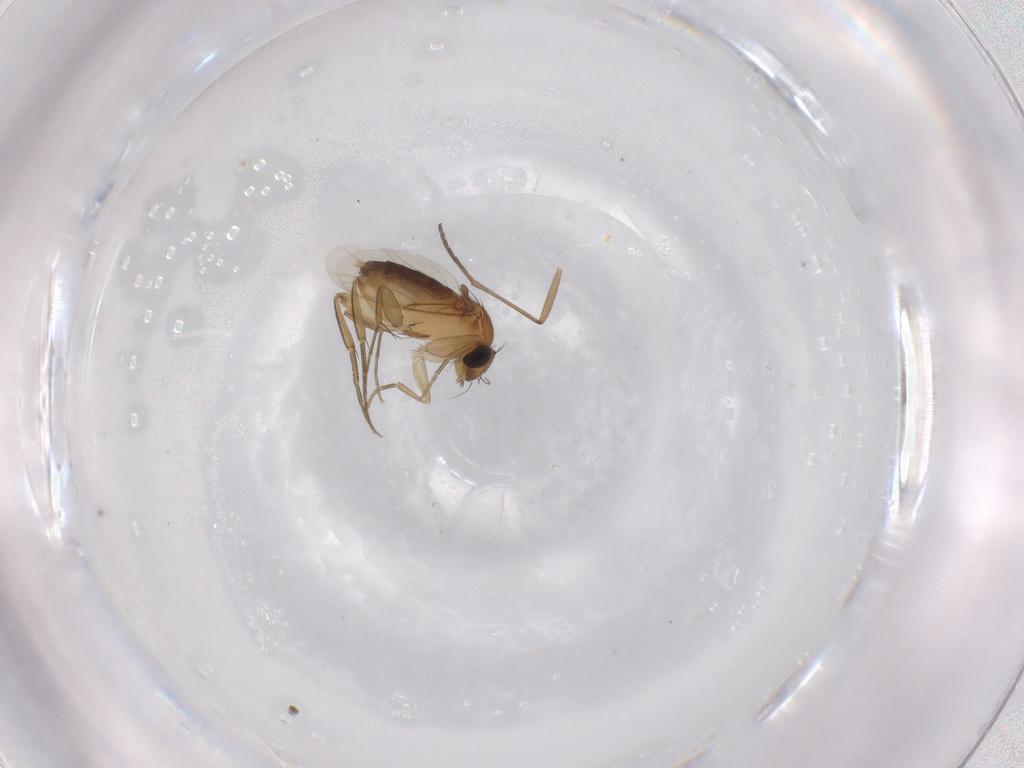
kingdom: Animalia
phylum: Arthropoda
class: Insecta
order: Diptera
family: Phoridae
